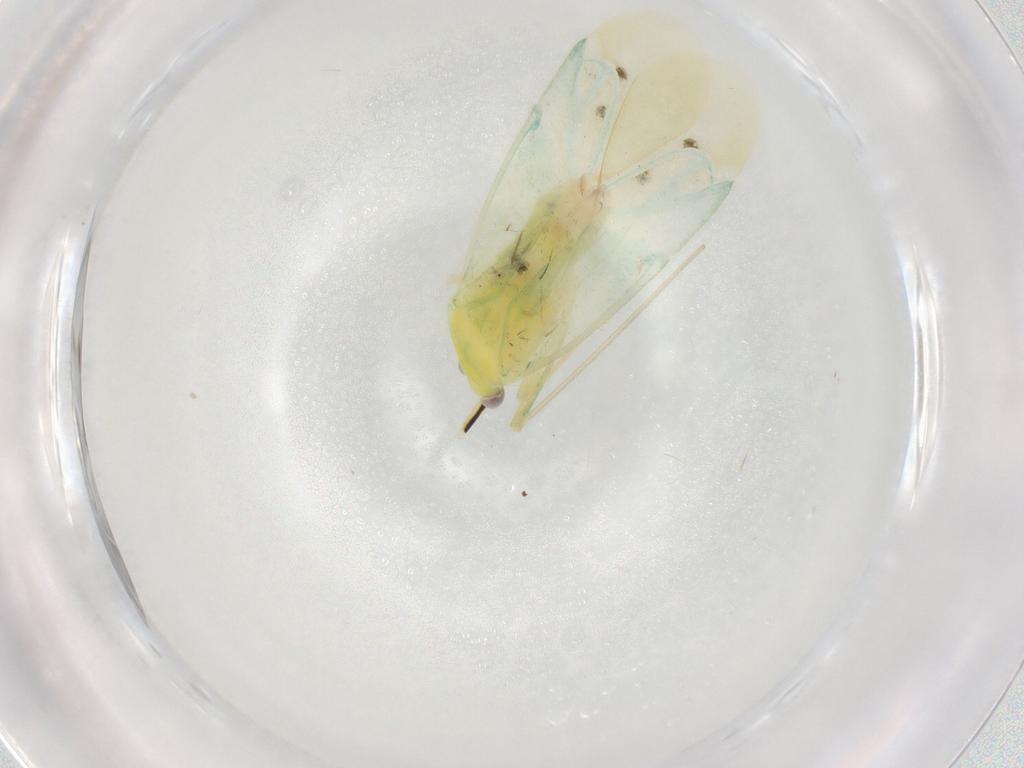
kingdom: Animalia
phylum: Arthropoda
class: Insecta
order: Hemiptera
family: Miridae
